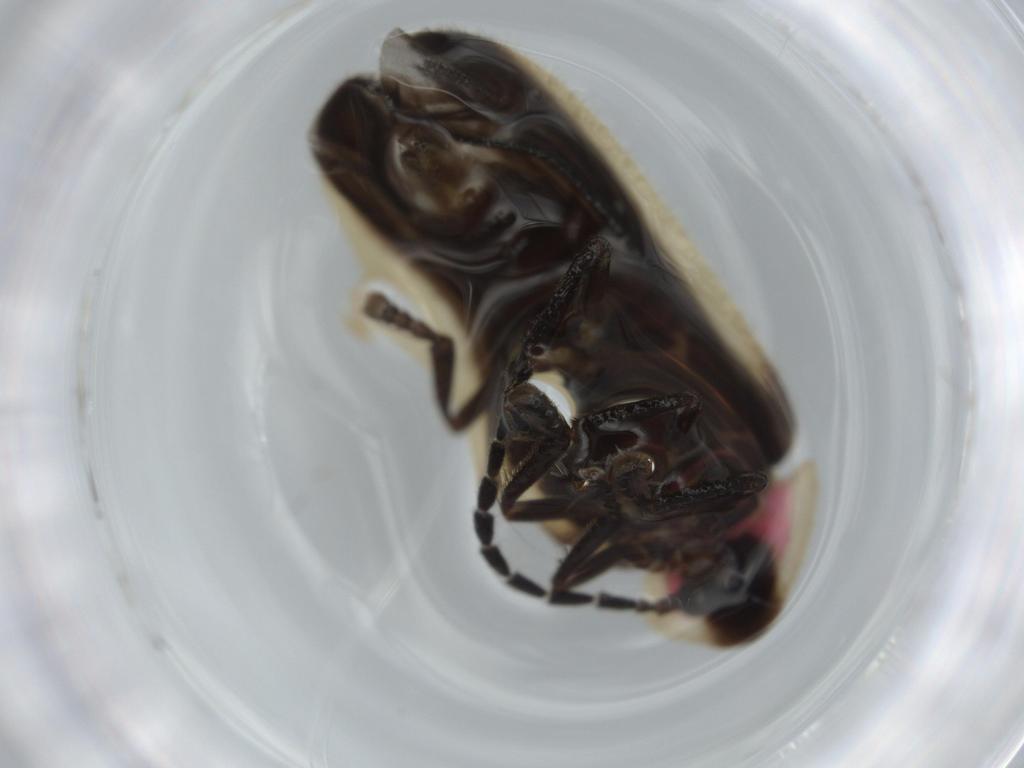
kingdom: Animalia
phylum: Arthropoda
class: Insecta
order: Coleoptera
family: Lampyridae
